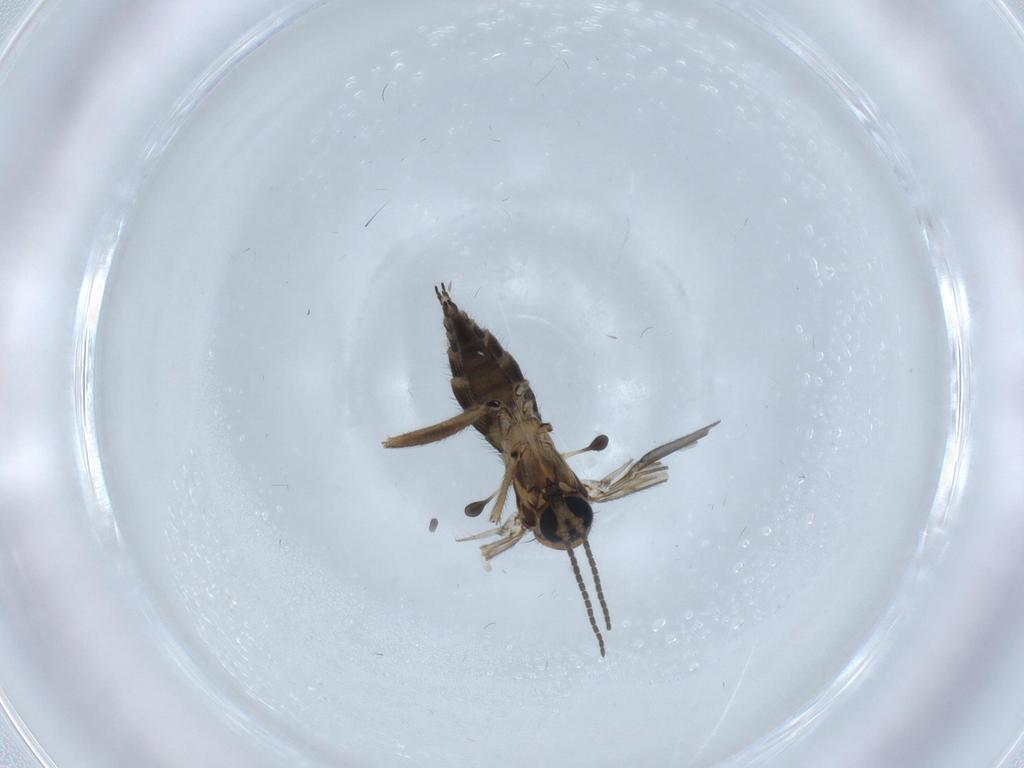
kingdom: Animalia
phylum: Arthropoda
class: Insecta
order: Diptera
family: Sciaridae
